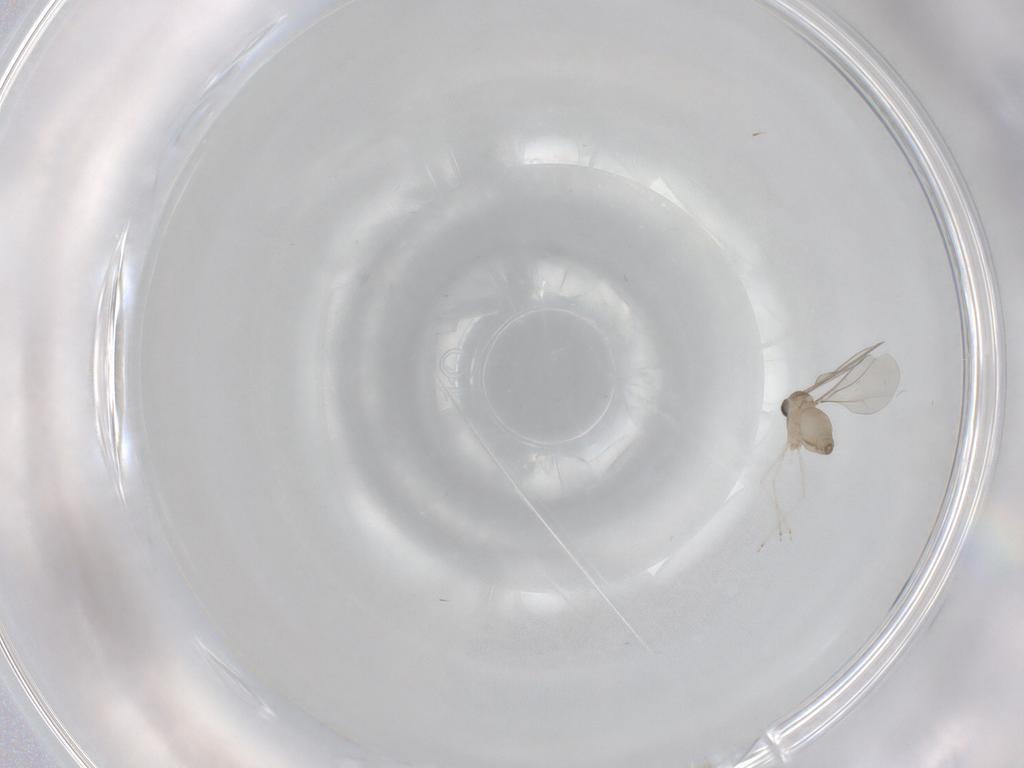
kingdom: Animalia
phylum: Arthropoda
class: Insecta
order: Diptera
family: Cecidomyiidae
